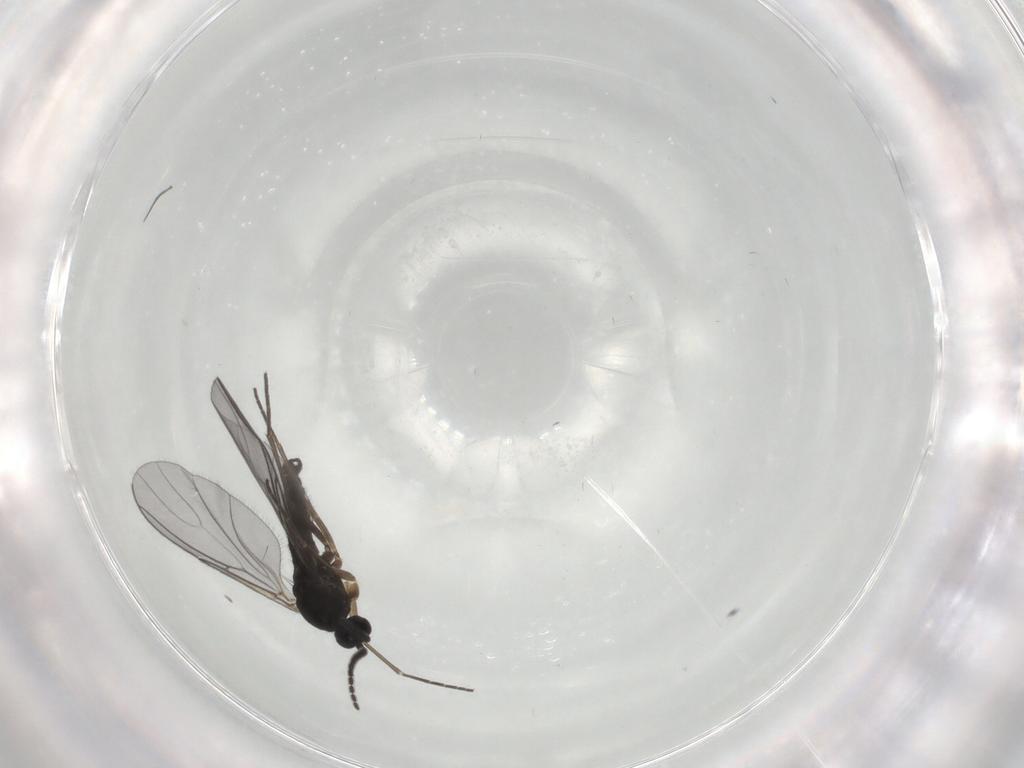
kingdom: Animalia
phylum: Arthropoda
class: Insecta
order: Diptera
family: Sciaridae
